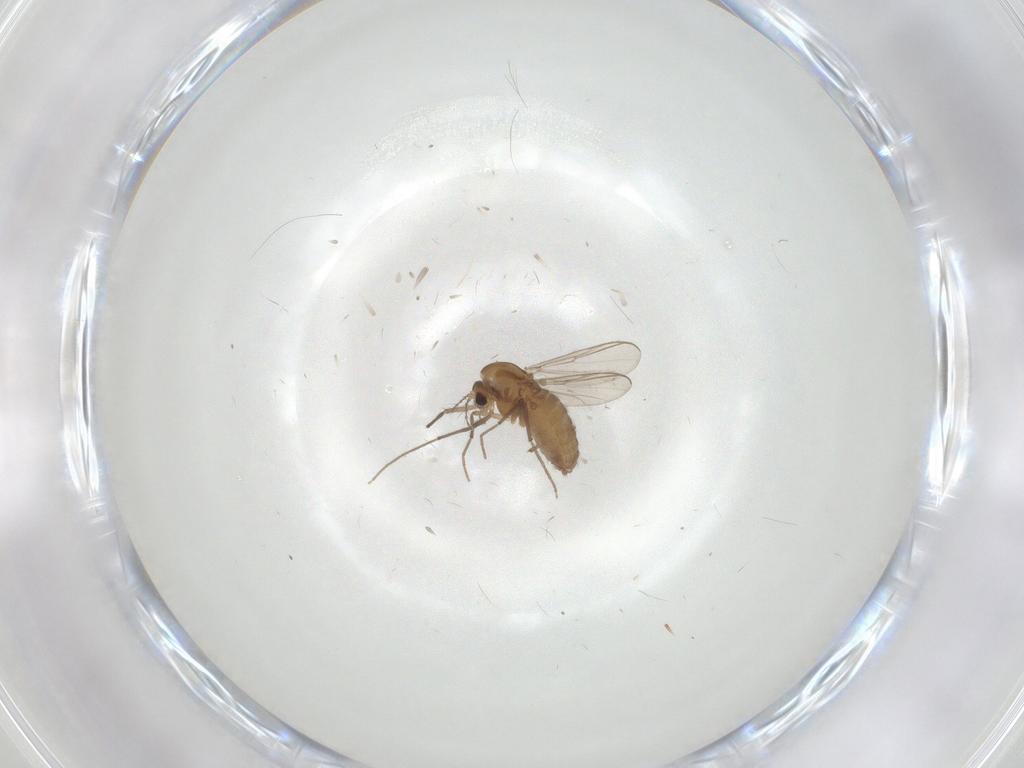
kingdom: Animalia
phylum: Arthropoda
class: Insecta
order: Diptera
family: Chironomidae
